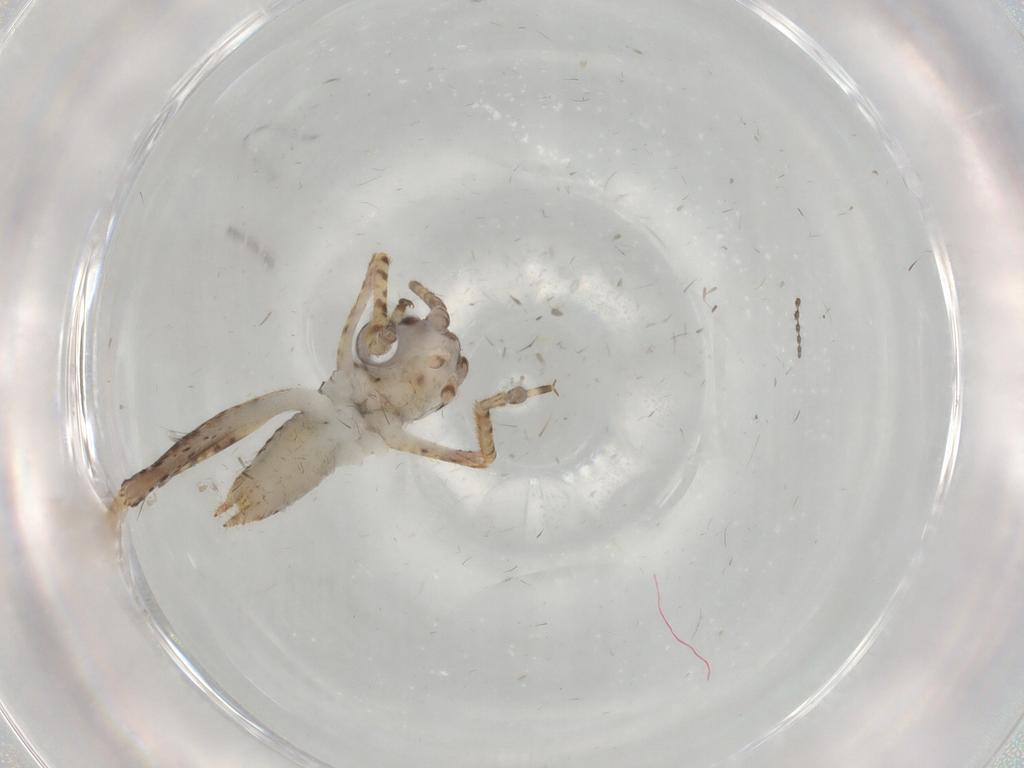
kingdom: Animalia
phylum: Arthropoda
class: Insecta
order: Orthoptera
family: Gryllidae
